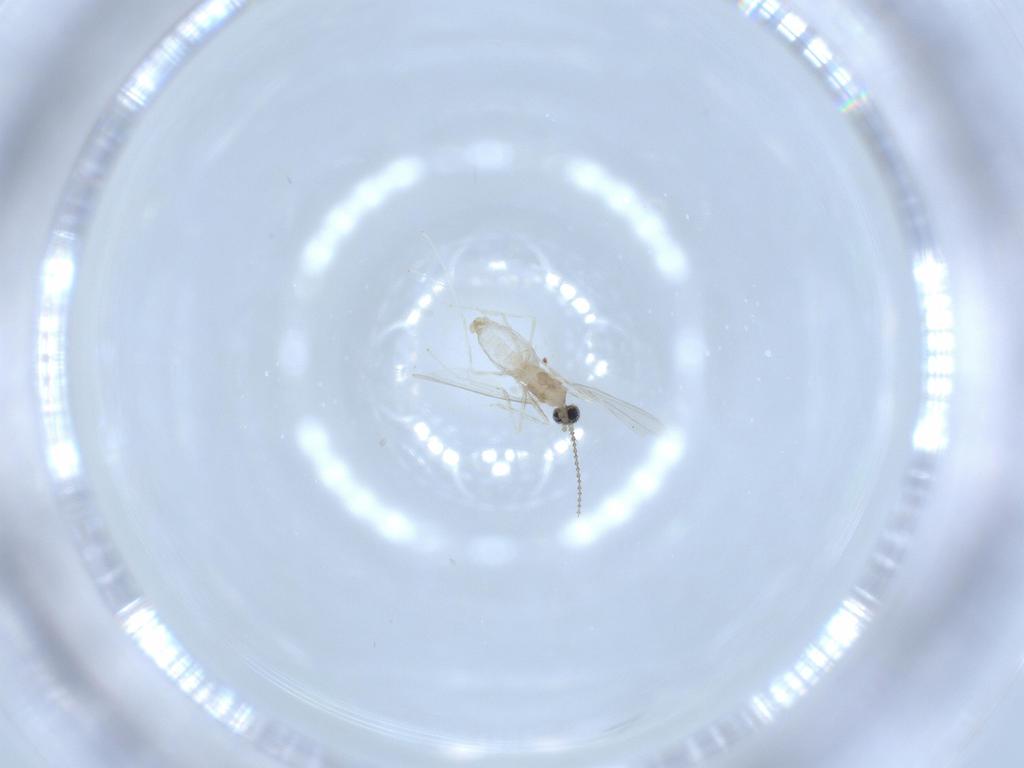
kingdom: Animalia
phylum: Arthropoda
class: Insecta
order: Diptera
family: Cecidomyiidae
